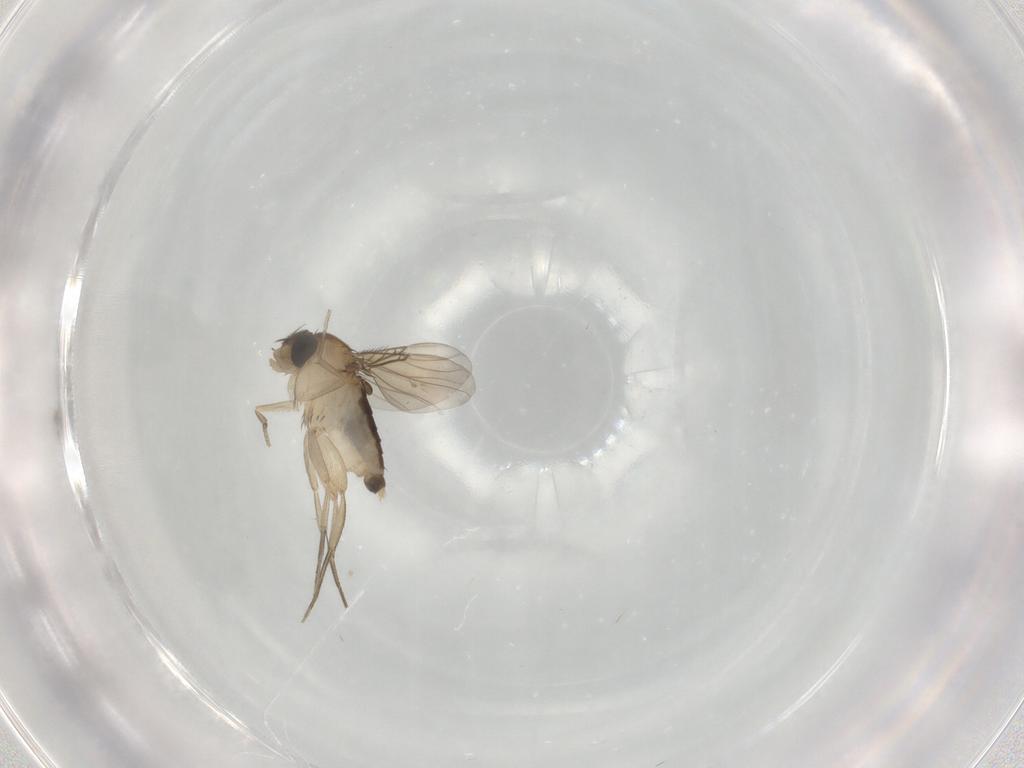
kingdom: Animalia
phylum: Arthropoda
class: Insecta
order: Diptera
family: Phoridae
